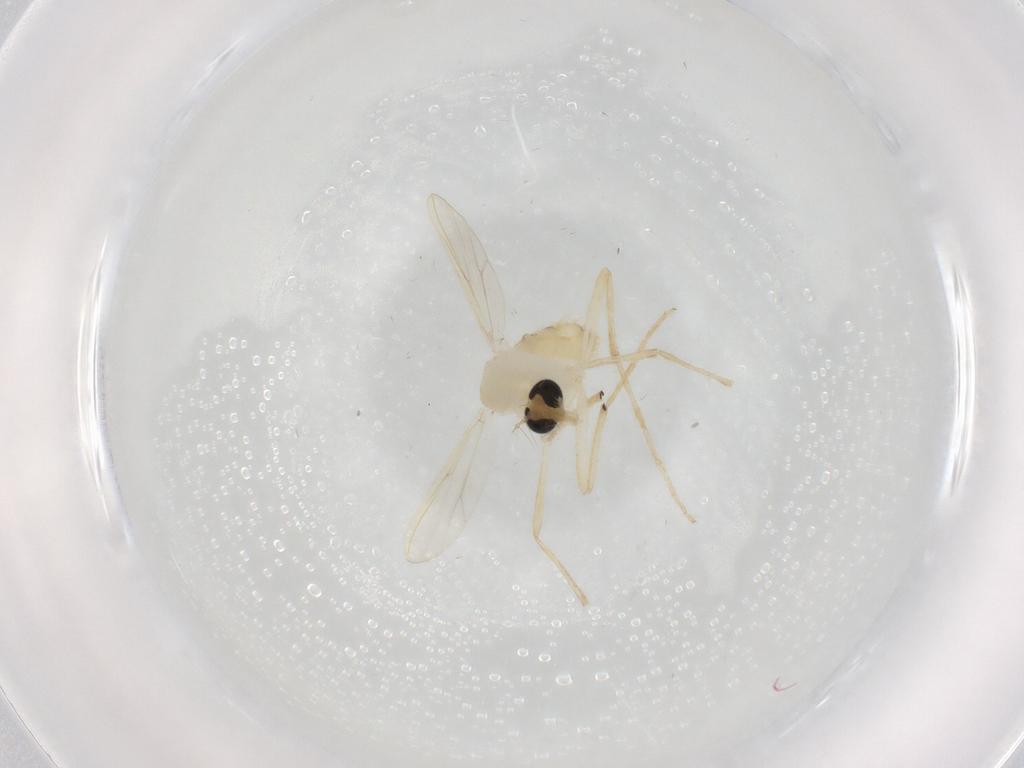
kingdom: Animalia
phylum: Arthropoda
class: Insecta
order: Diptera
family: Chironomidae
